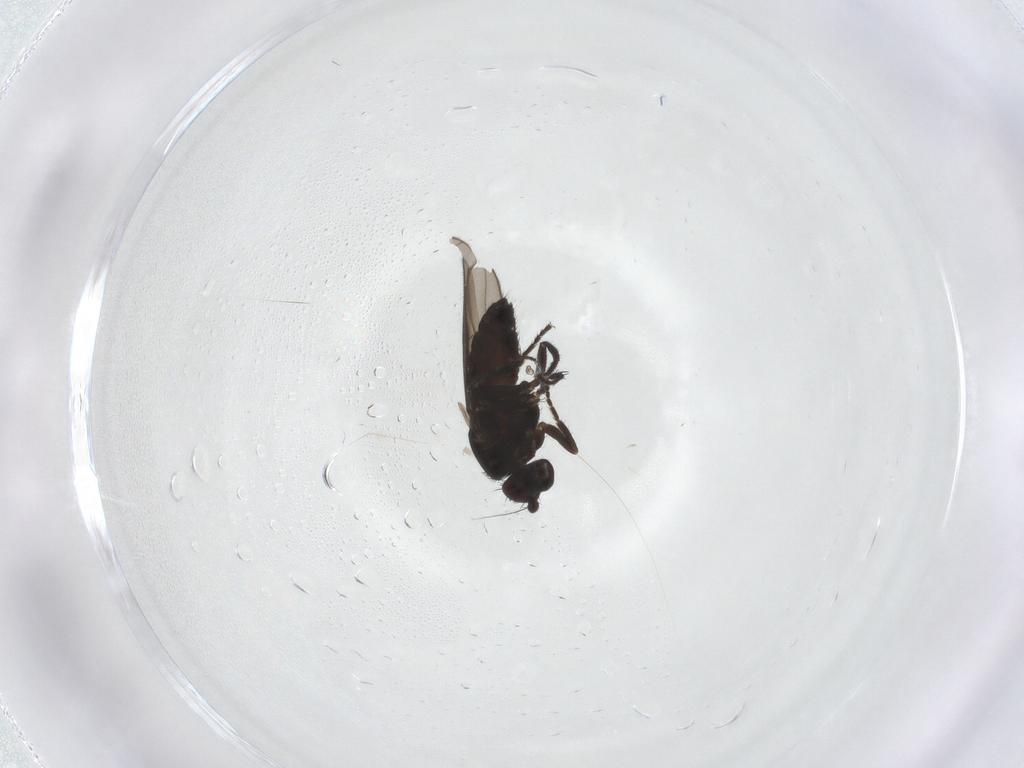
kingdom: Animalia
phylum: Arthropoda
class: Insecta
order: Diptera
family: Sphaeroceridae
